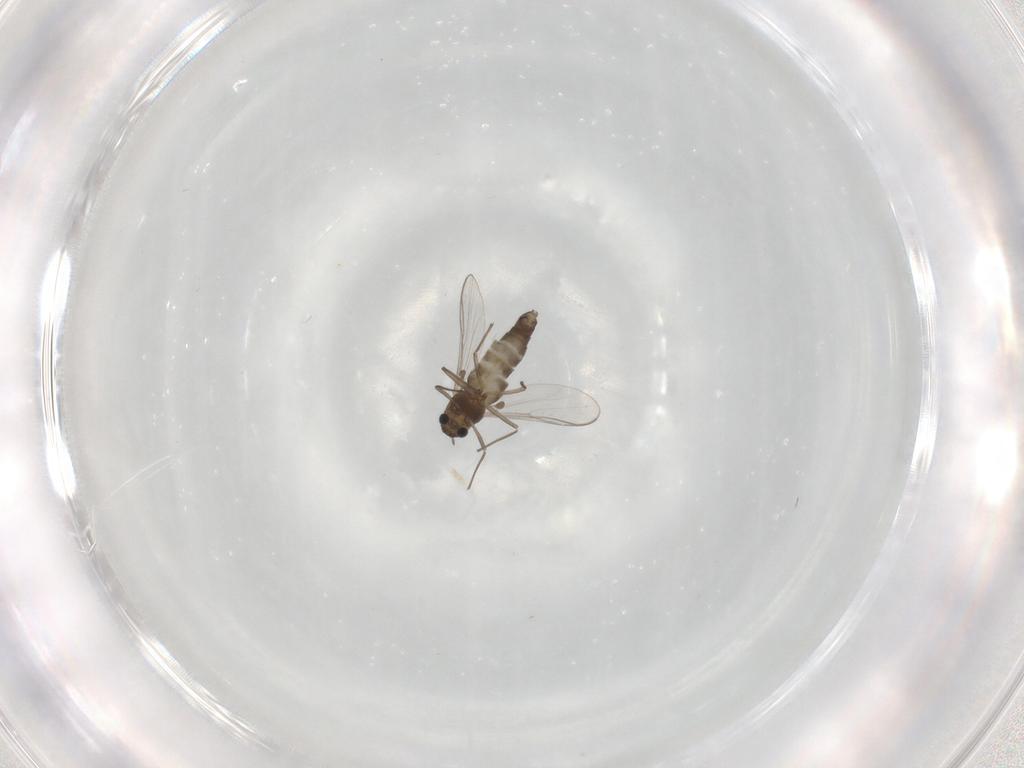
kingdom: Animalia
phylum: Arthropoda
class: Insecta
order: Diptera
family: Chironomidae
